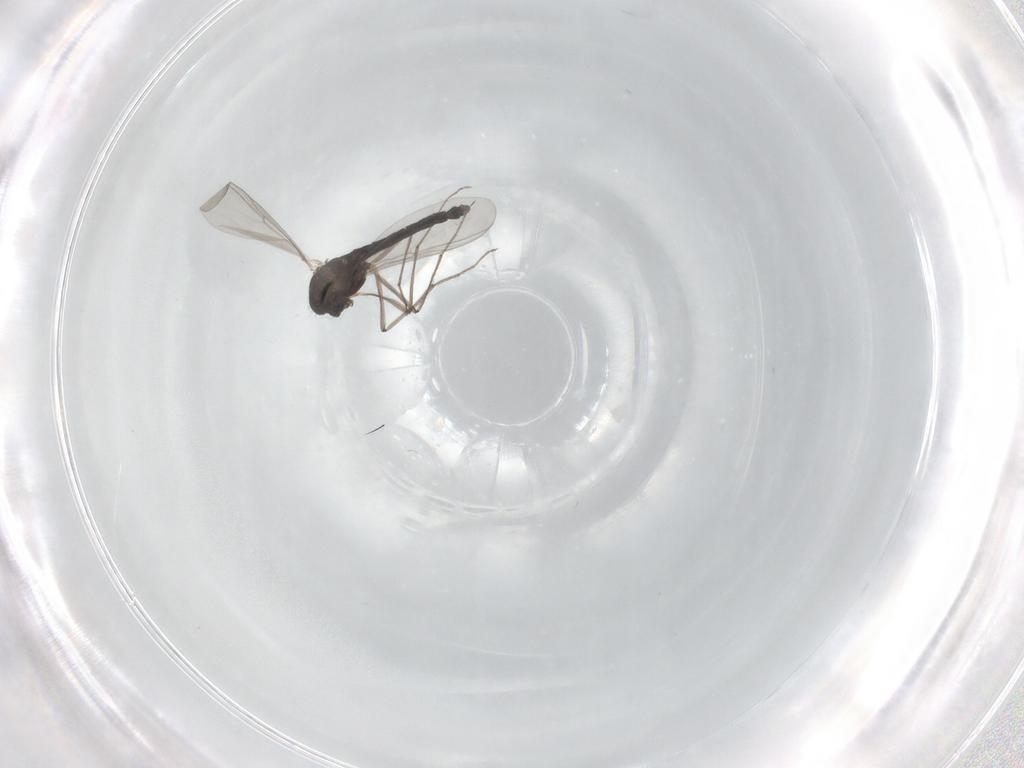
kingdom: Animalia
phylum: Arthropoda
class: Insecta
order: Diptera
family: Chironomidae
